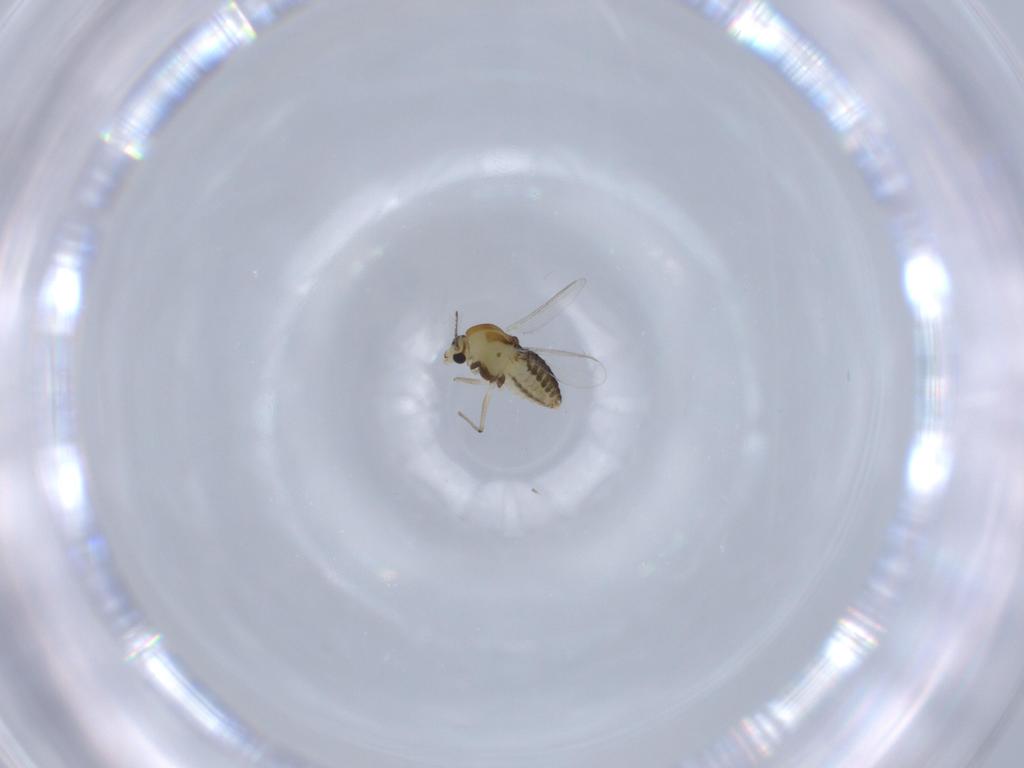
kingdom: Animalia
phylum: Arthropoda
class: Insecta
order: Diptera
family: Chironomidae
